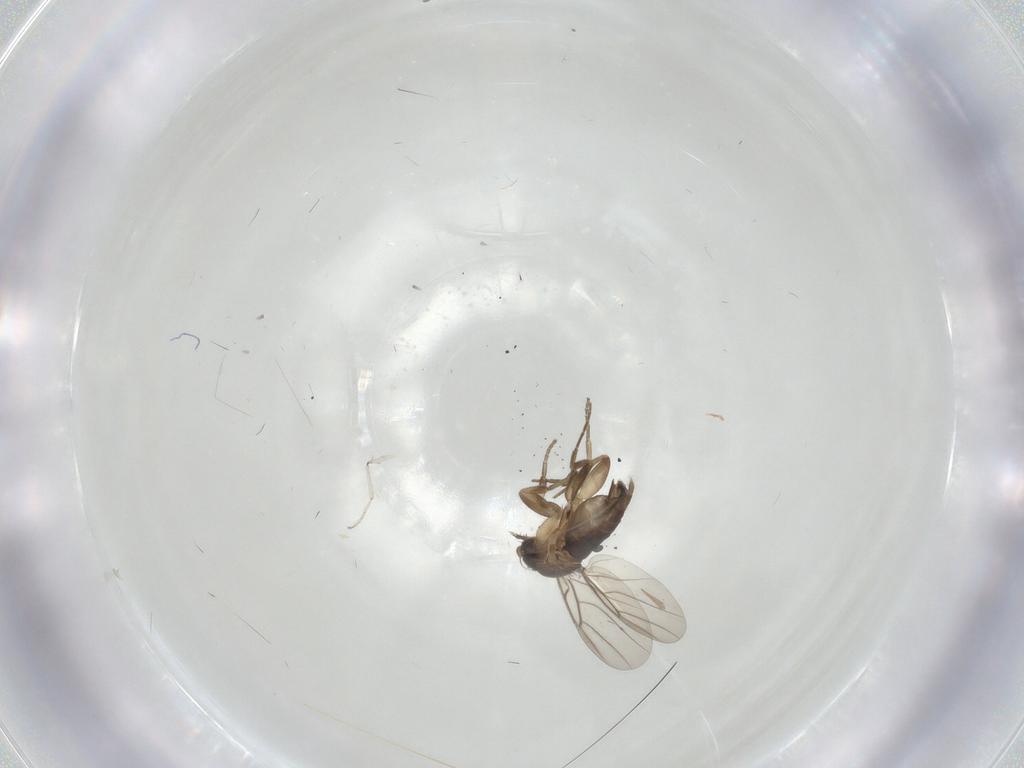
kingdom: Animalia
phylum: Arthropoda
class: Insecta
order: Diptera
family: Cecidomyiidae
